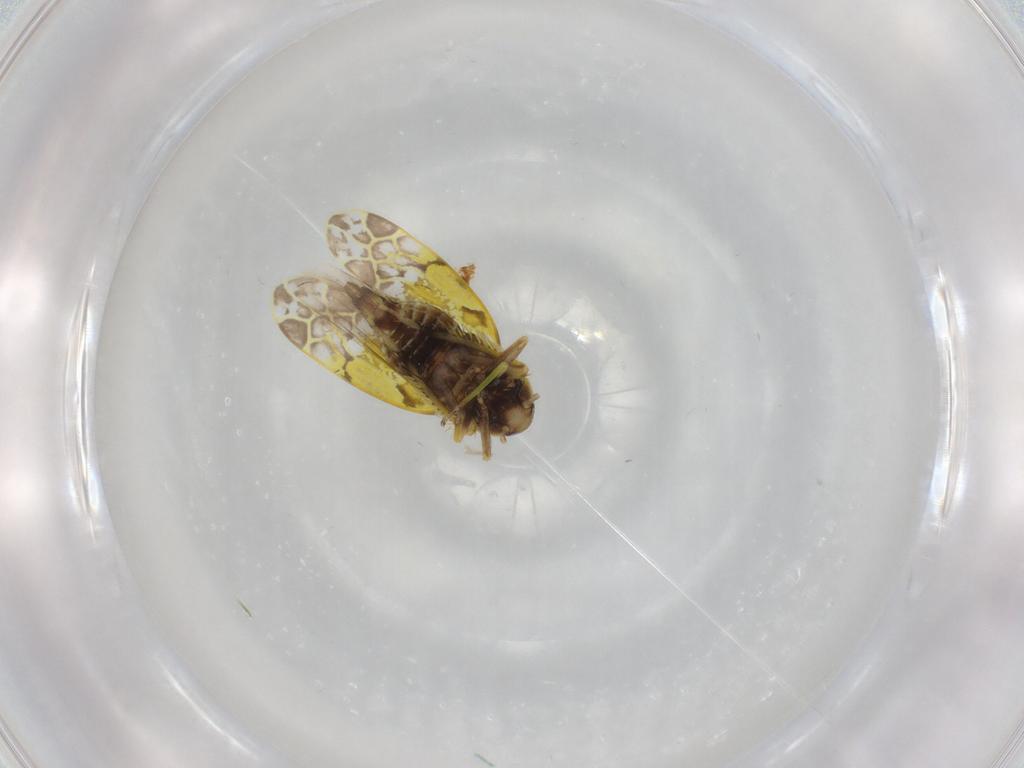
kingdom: Animalia
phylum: Arthropoda
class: Insecta
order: Hemiptera
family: Cicadellidae
